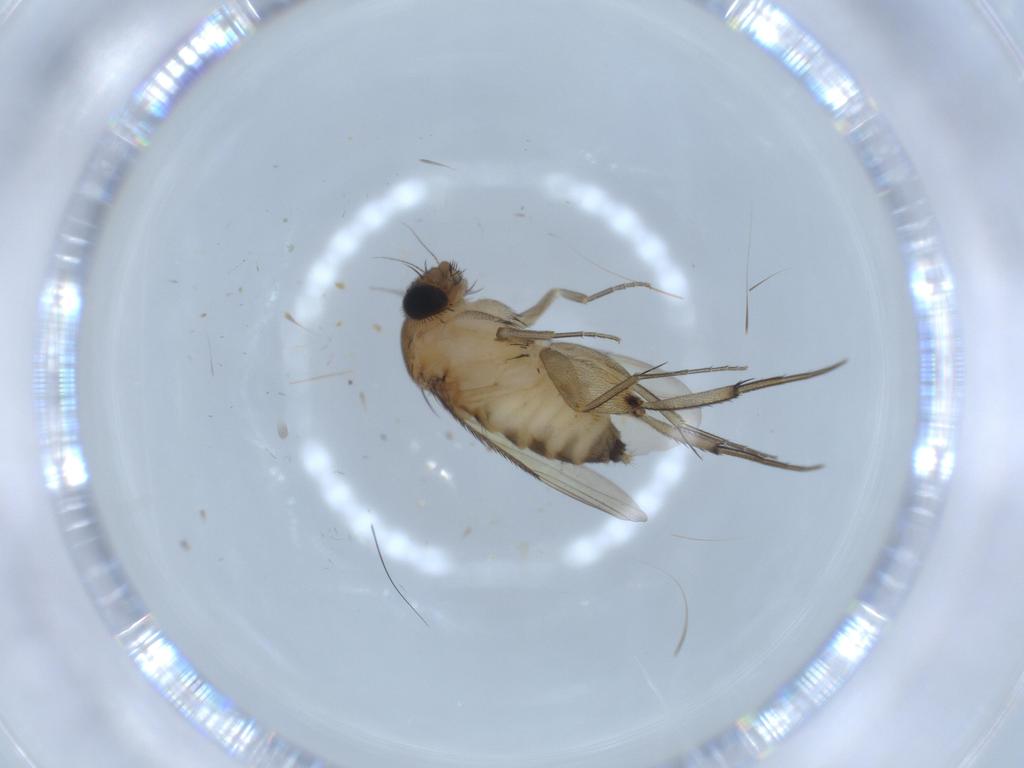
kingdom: Animalia
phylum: Arthropoda
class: Insecta
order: Diptera
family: Phoridae
